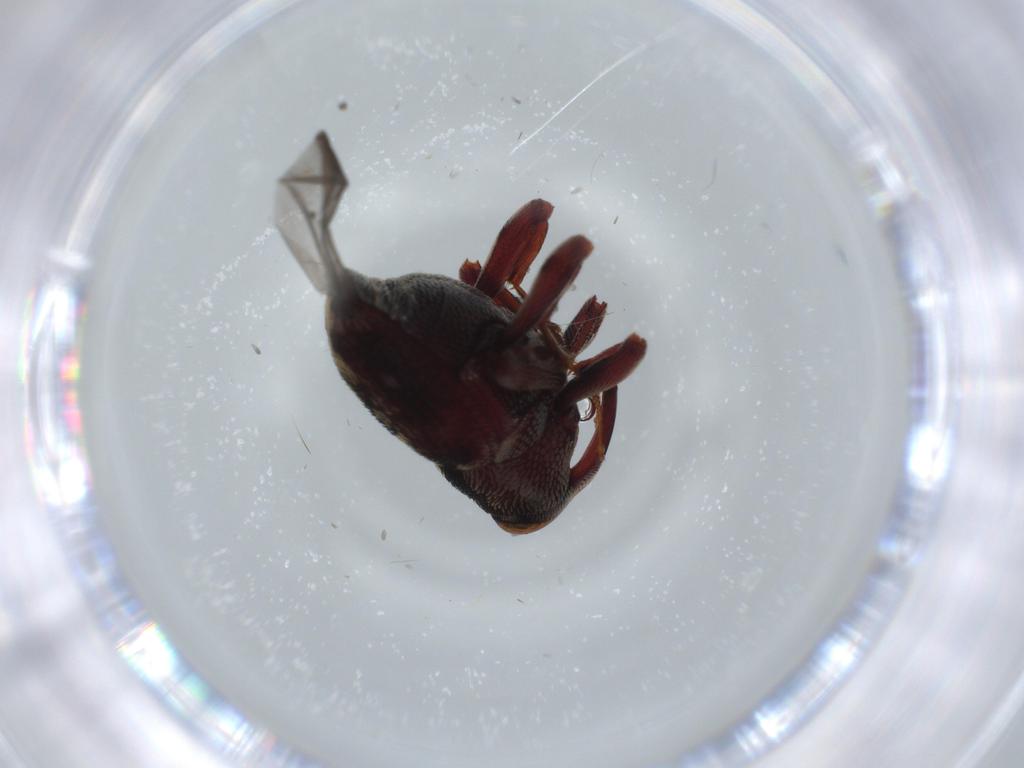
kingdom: Animalia
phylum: Arthropoda
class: Insecta
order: Coleoptera
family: Curculionidae
